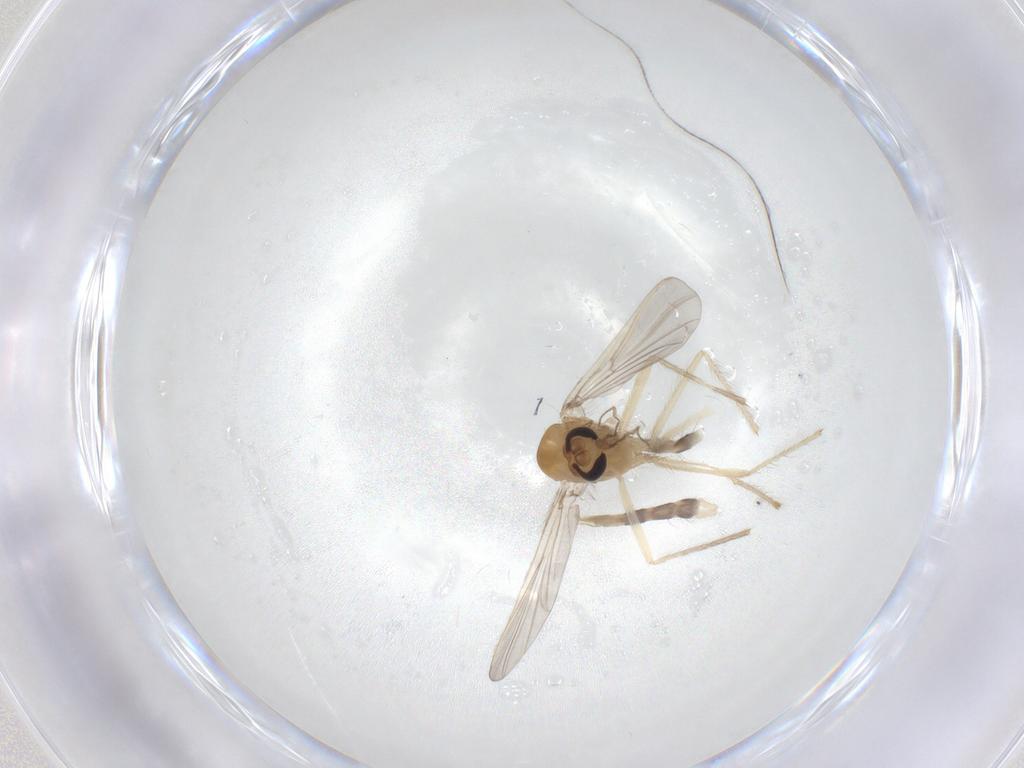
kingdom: Animalia
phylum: Arthropoda
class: Insecta
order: Diptera
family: Chironomidae
